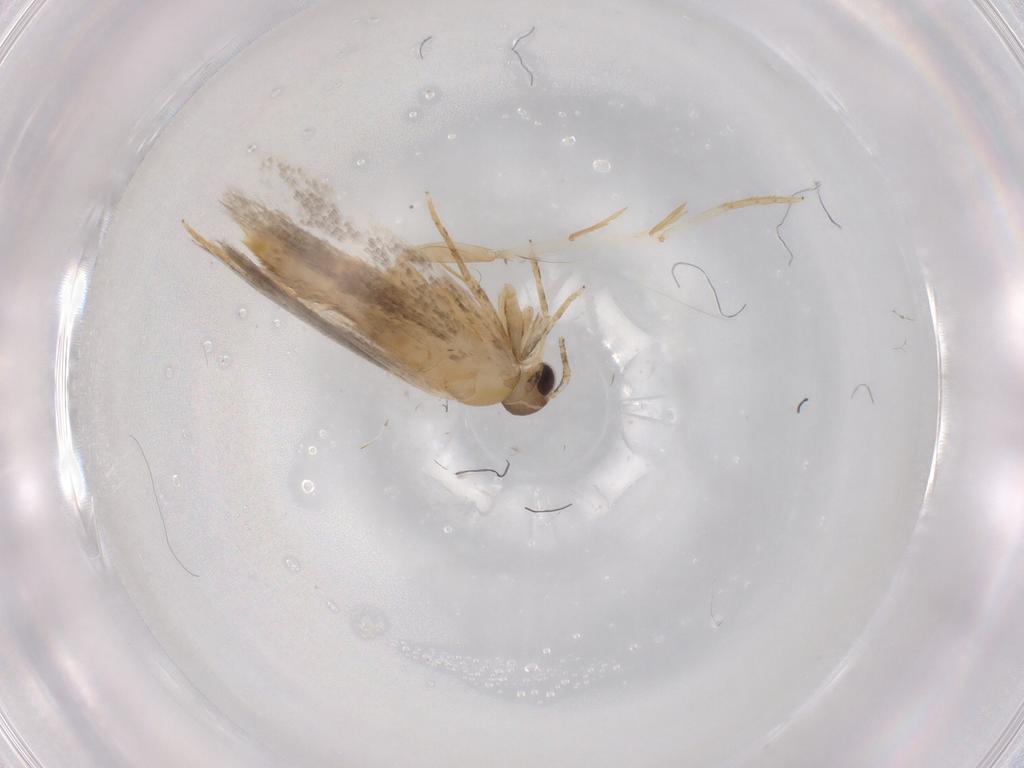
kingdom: Animalia
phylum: Arthropoda
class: Insecta
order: Lepidoptera
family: Autostichidae
